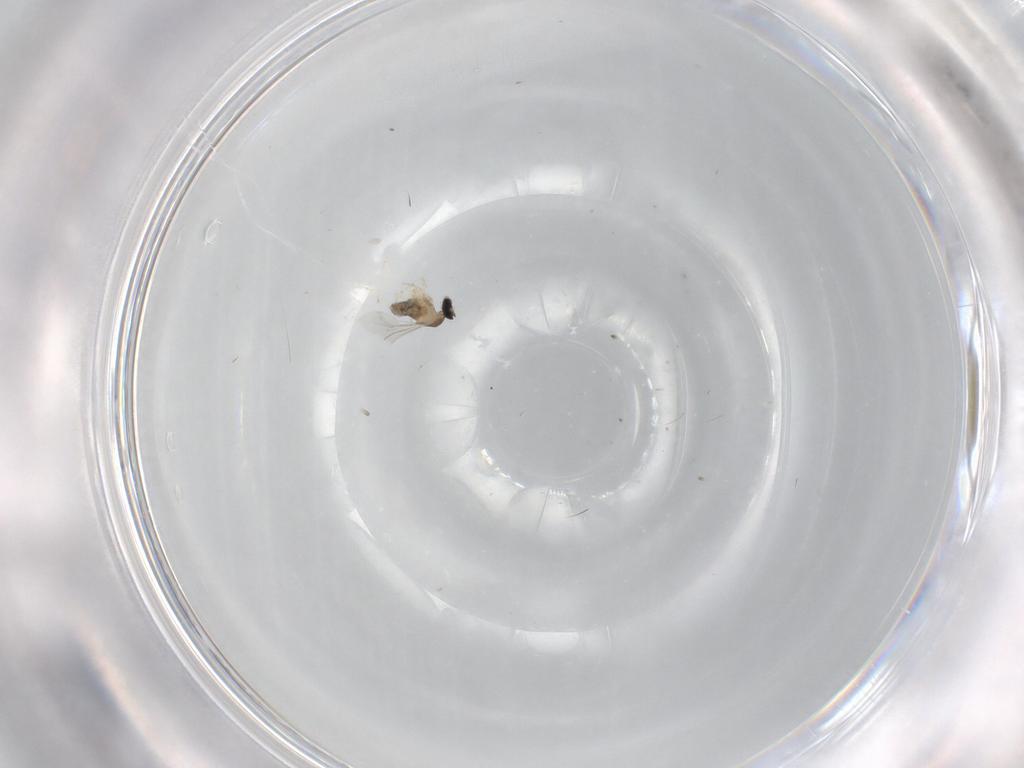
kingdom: Animalia
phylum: Arthropoda
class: Insecta
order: Diptera
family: Cecidomyiidae
